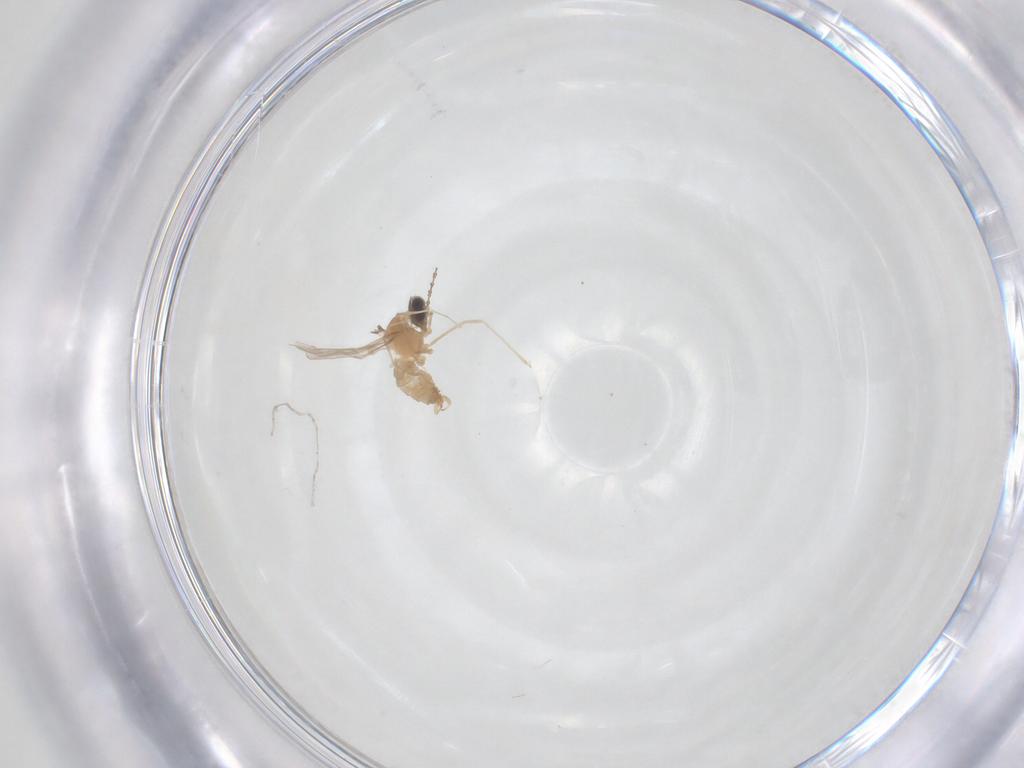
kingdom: Animalia
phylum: Arthropoda
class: Insecta
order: Diptera
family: Cecidomyiidae
